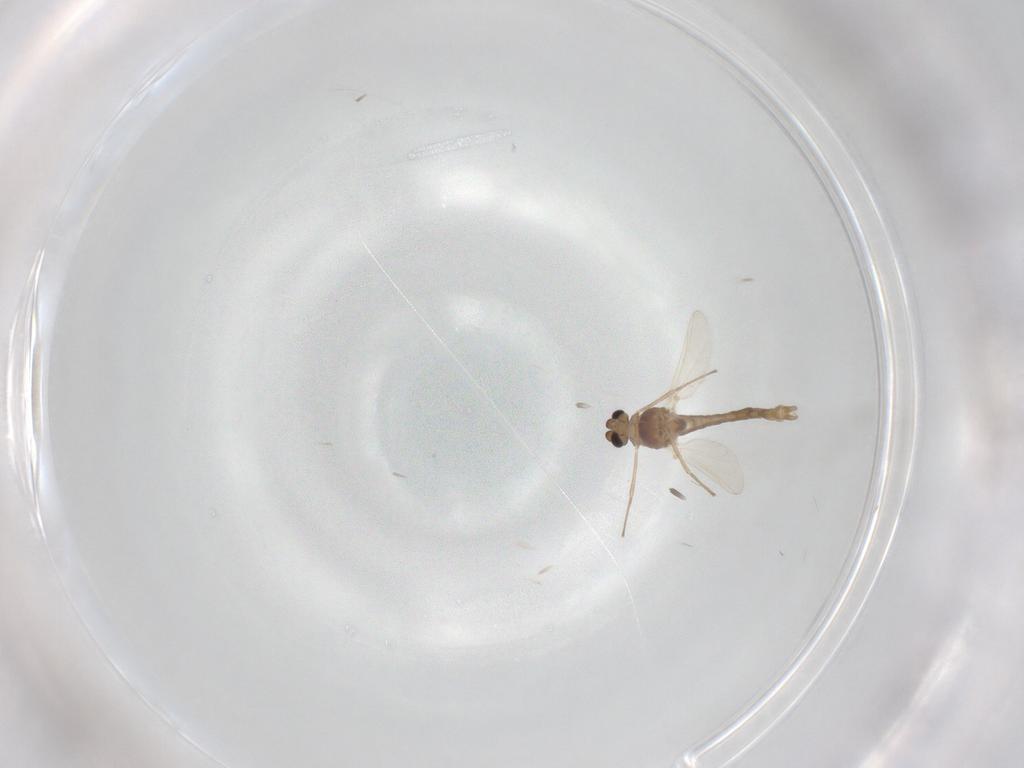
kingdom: Animalia
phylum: Arthropoda
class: Insecta
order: Diptera
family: Chironomidae
